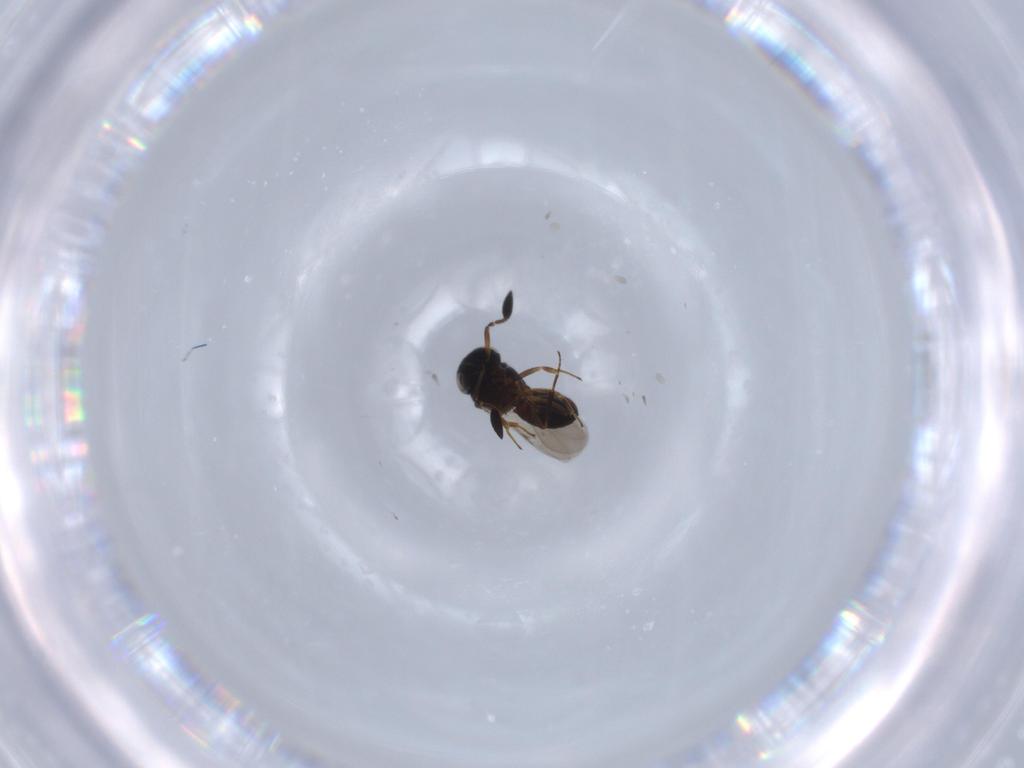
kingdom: Animalia
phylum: Arthropoda
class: Insecta
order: Hymenoptera
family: Scelionidae
